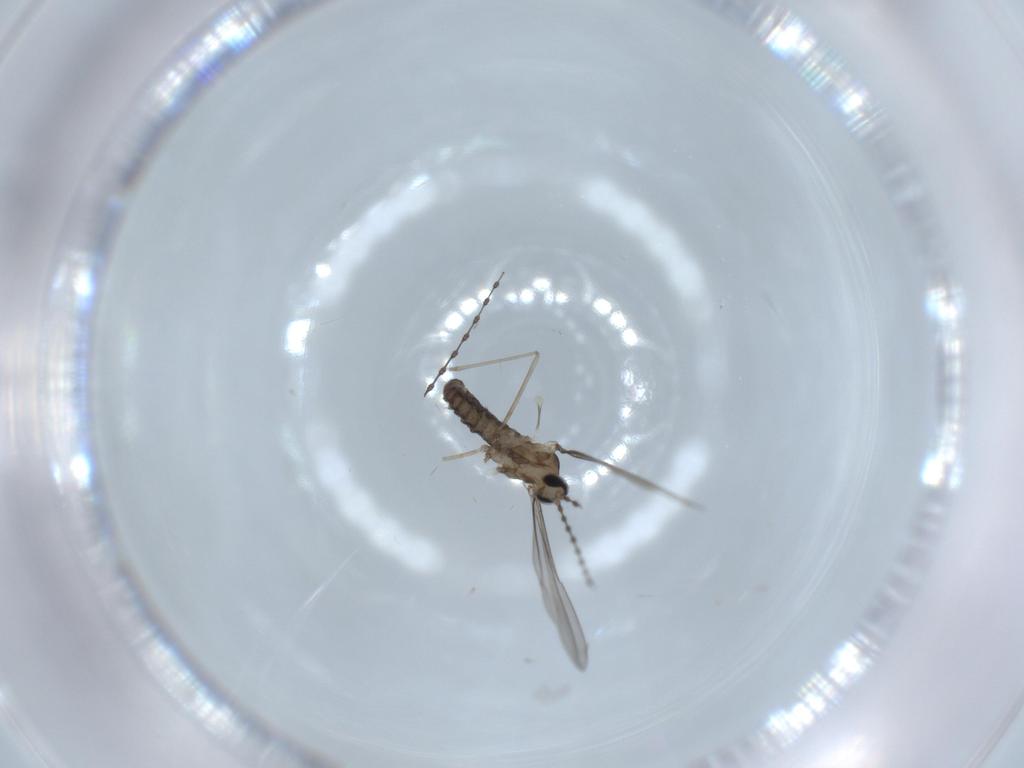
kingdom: Animalia
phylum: Arthropoda
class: Insecta
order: Diptera
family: Cecidomyiidae
